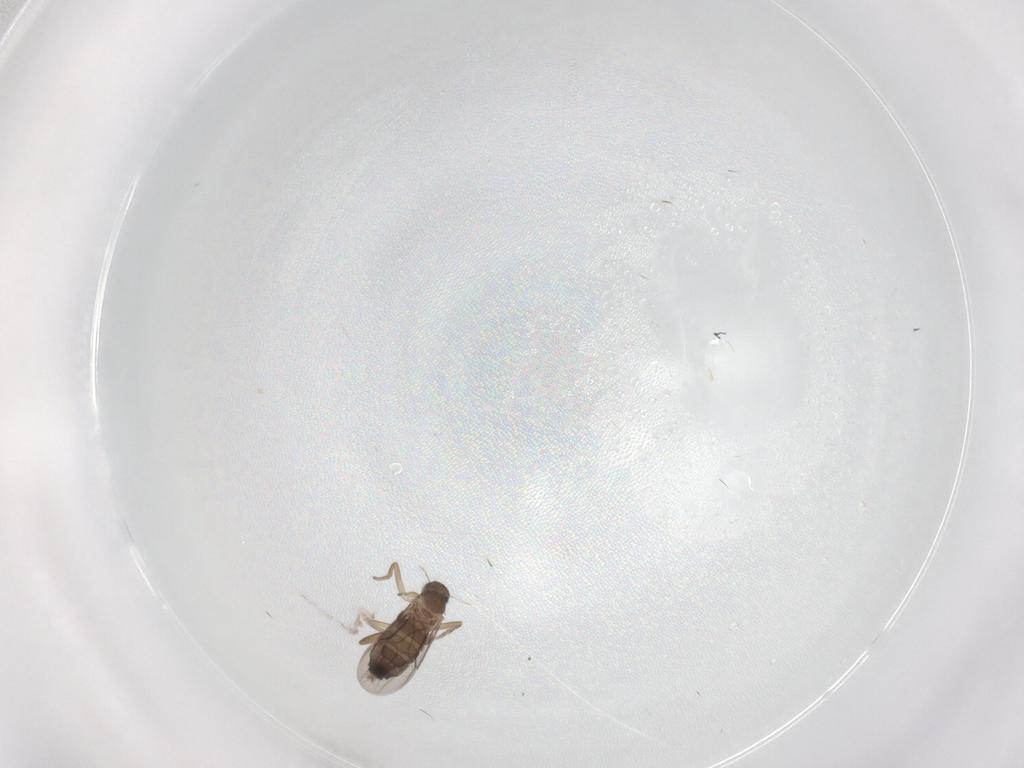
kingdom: Animalia
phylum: Arthropoda
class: Insecta
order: Diptera
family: Phoridae
